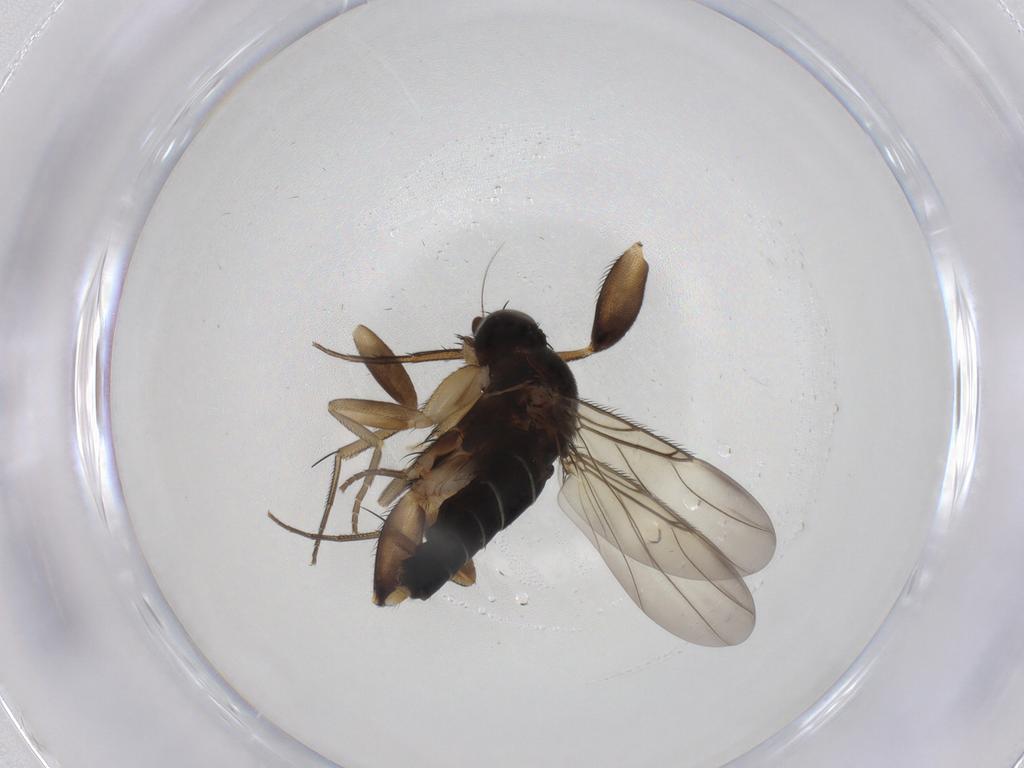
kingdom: Animalia
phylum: Arthropoda
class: Insecta
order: Diptera
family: Phoridae
